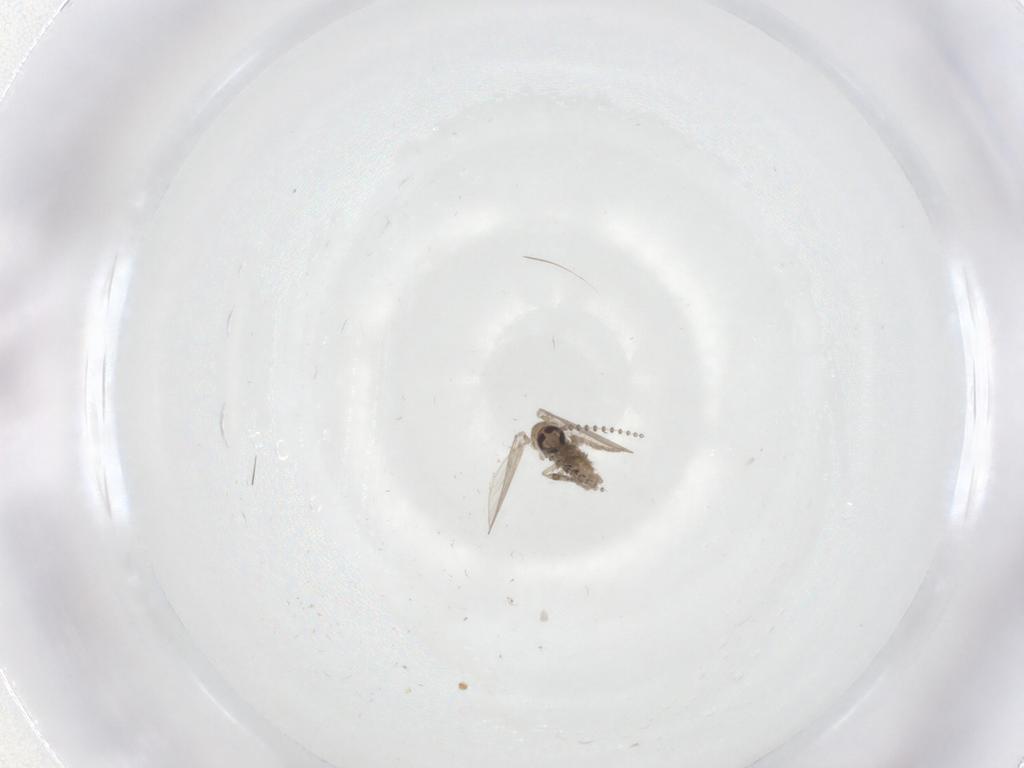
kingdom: Animalia
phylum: Arthropoda
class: Insecta
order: Diptera
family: Psychodidae
